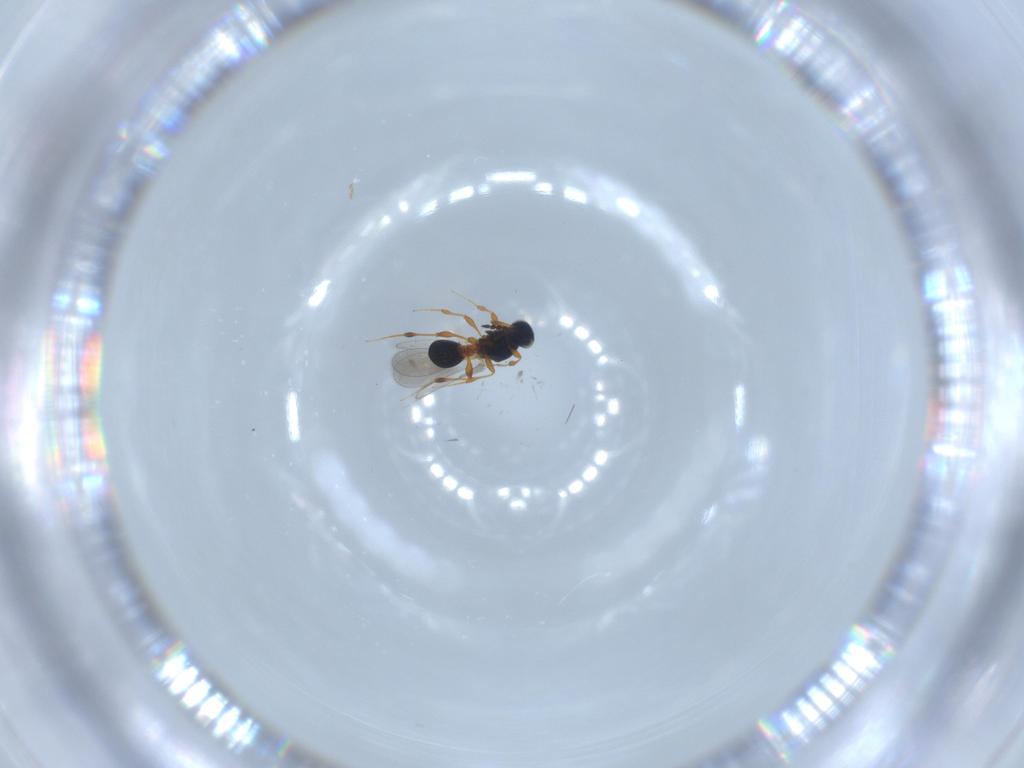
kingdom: Animalia
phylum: Arthropoda
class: Insecta
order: Hymenoptera
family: Platygastridae
